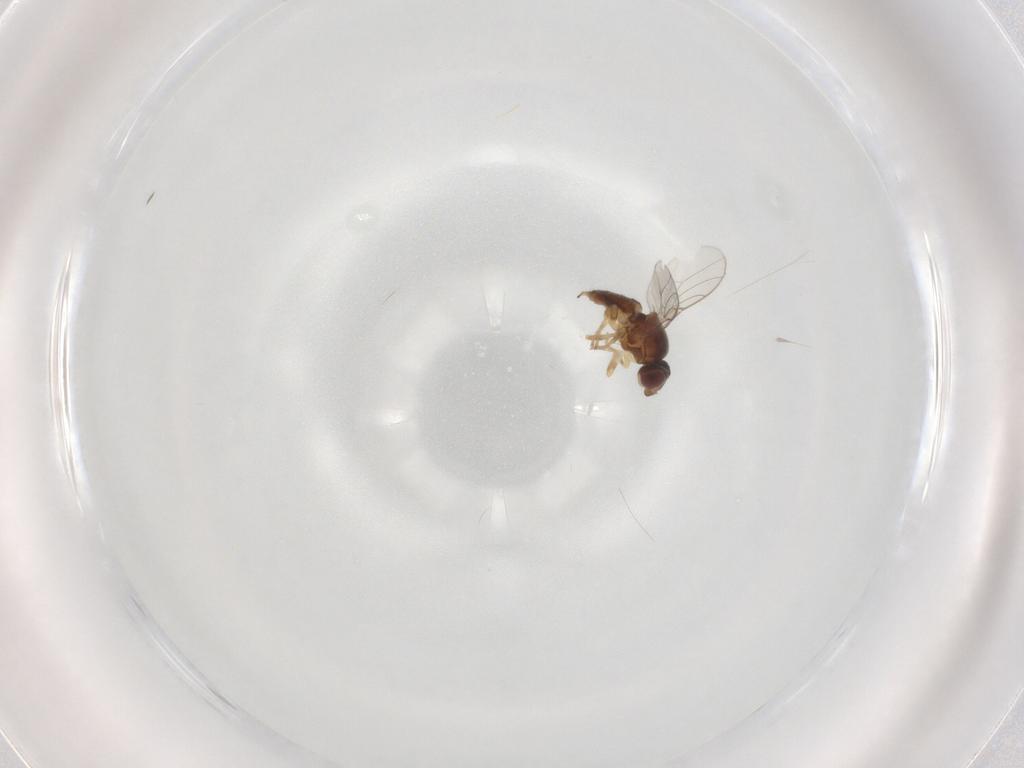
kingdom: Animalia
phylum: Arthropoda
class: Insecta
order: Diptera
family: Chloropidae
